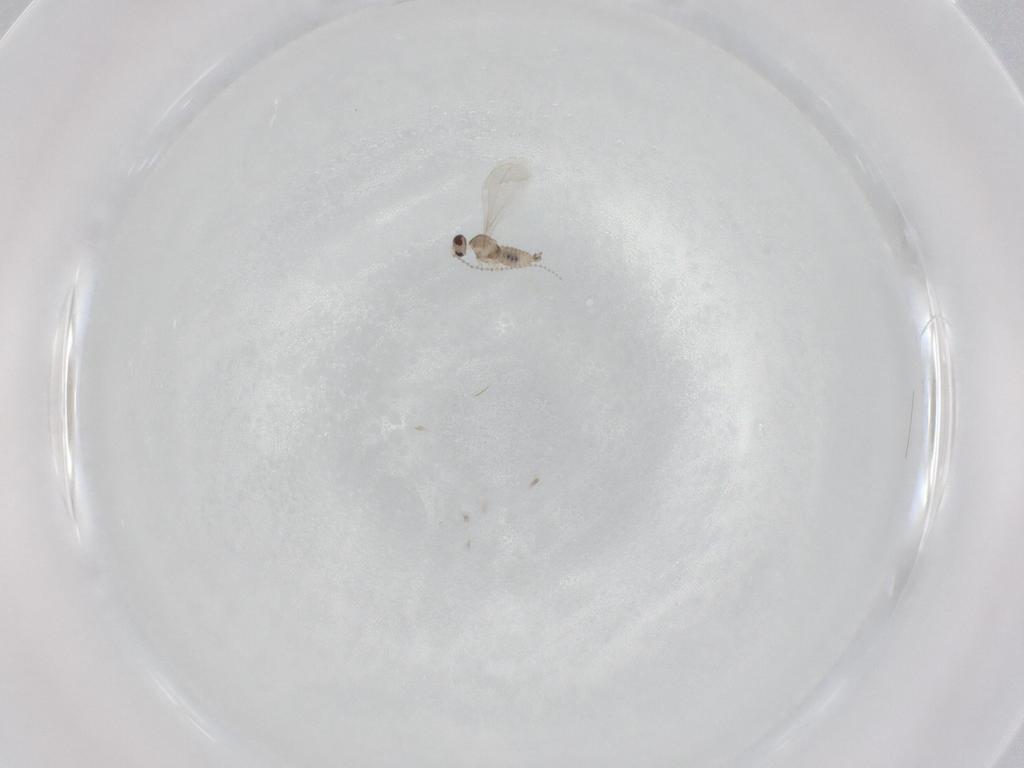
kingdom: Animalia
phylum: Arthropoda
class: Insecta
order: Diptera
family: Cecidomyiidae
